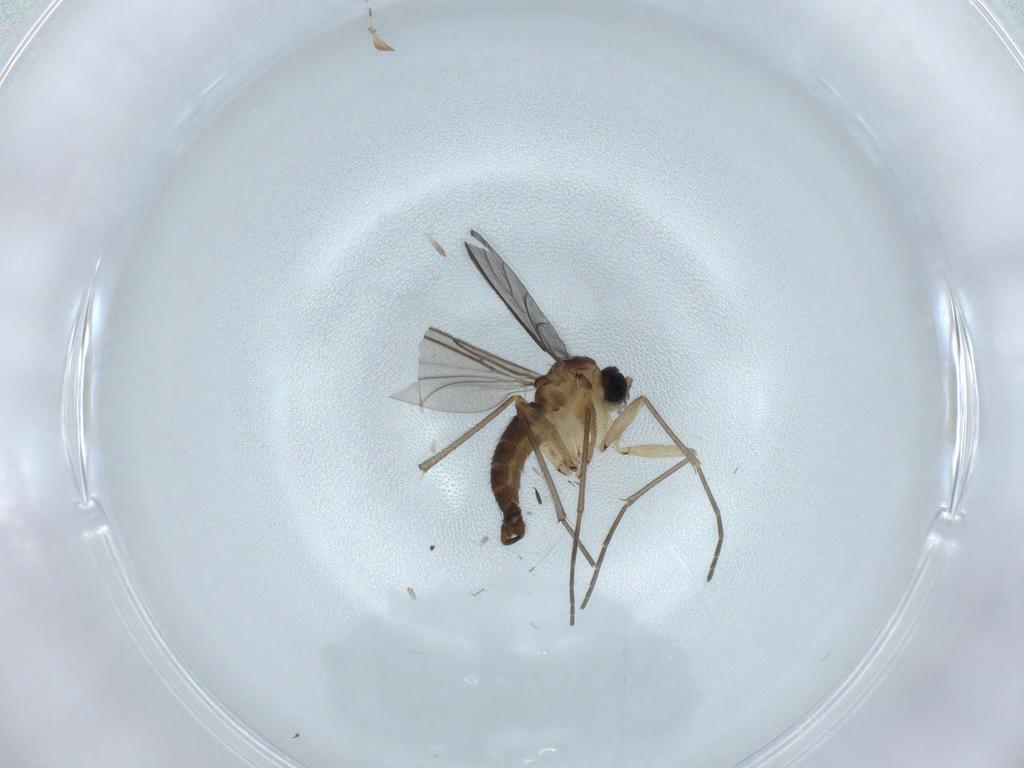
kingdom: Animalia
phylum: Arthropoda
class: Insecta
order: Diptera
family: Sciaridae
